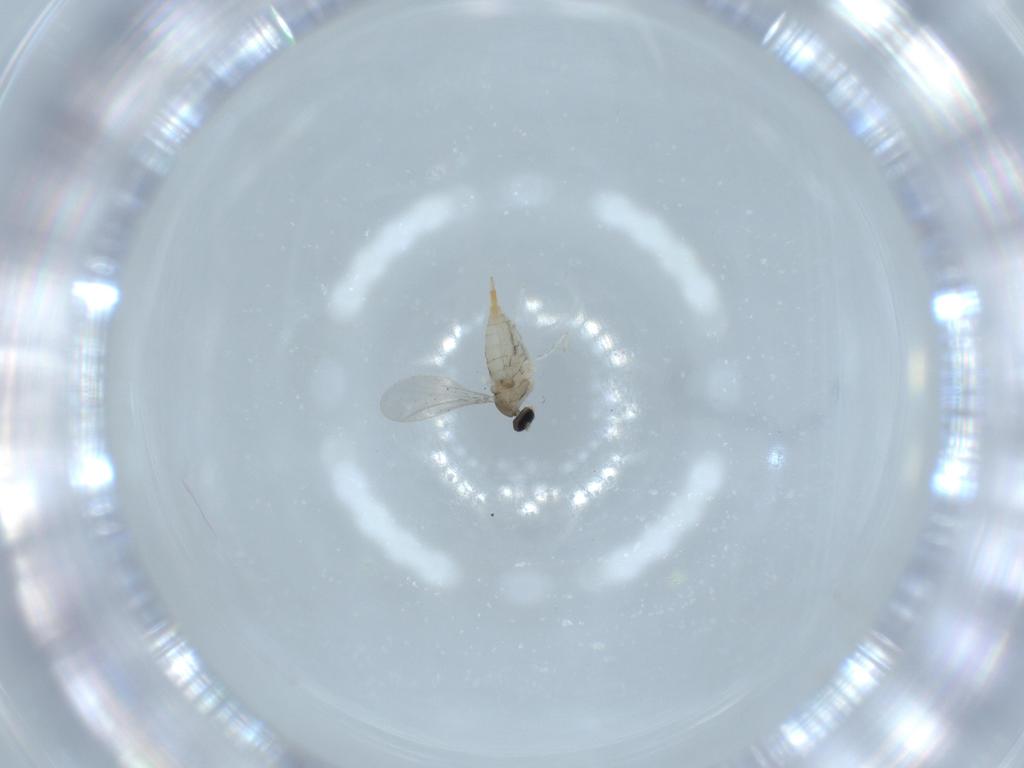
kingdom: Animalia
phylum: Arthropoda
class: Insecta
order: Diptera
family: Cecidomyiidae
